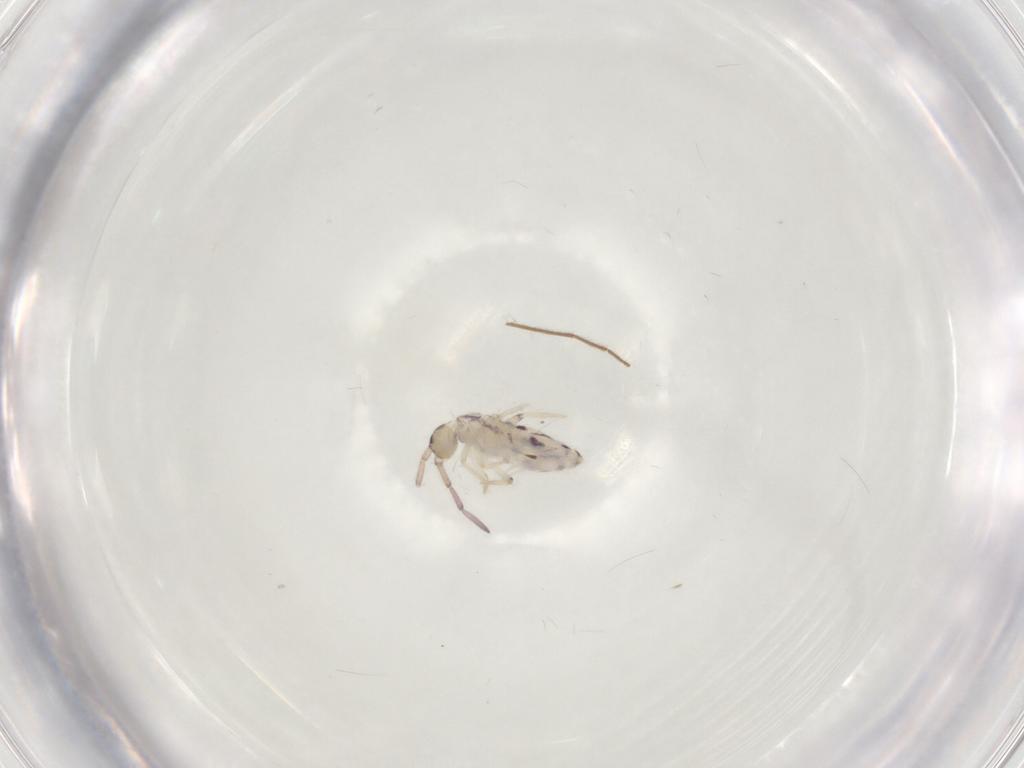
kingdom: Animalia
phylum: Arthropoda
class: Collembola
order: Entomobryomorpha
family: Entomobryidae
